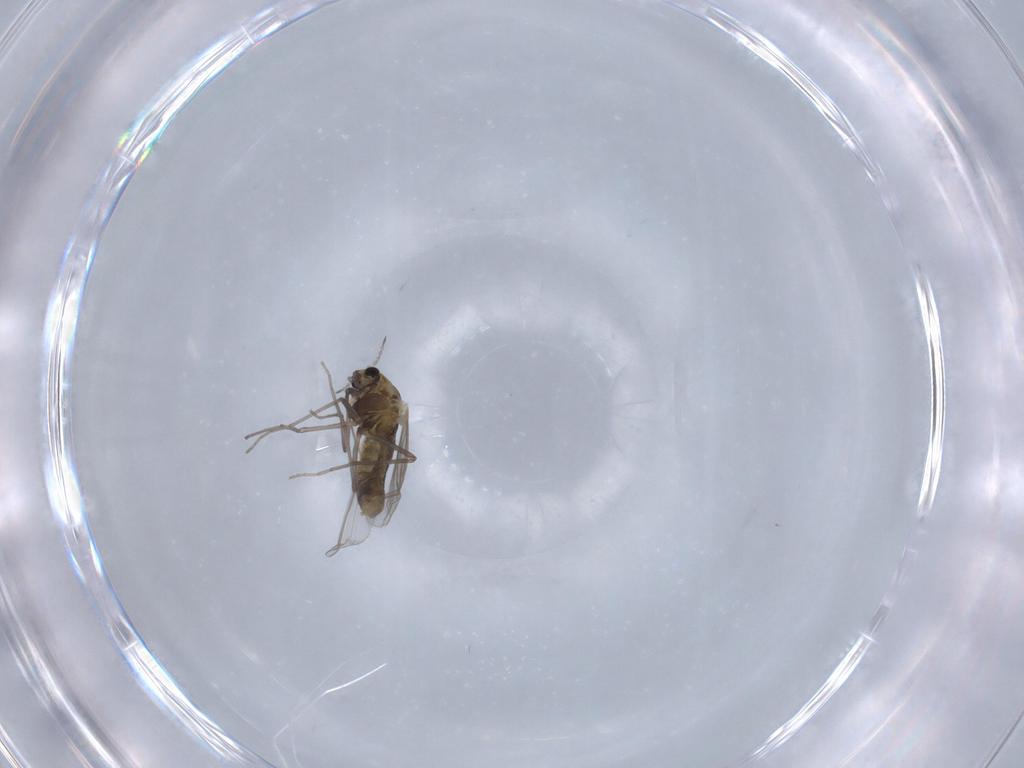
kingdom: Animalia
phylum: Arthropoda
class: Insecta
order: Diptera
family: Chironomidae
